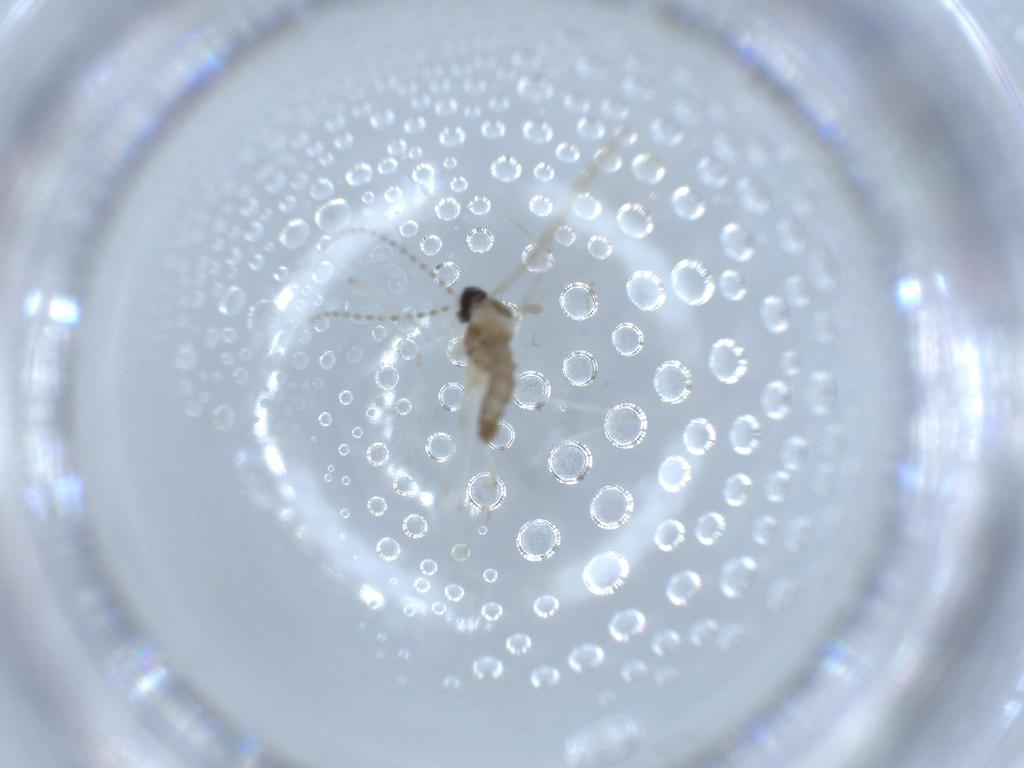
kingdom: Animalia
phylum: Arthropoda
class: Insecta
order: Diptera
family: Cecidomyiidae
